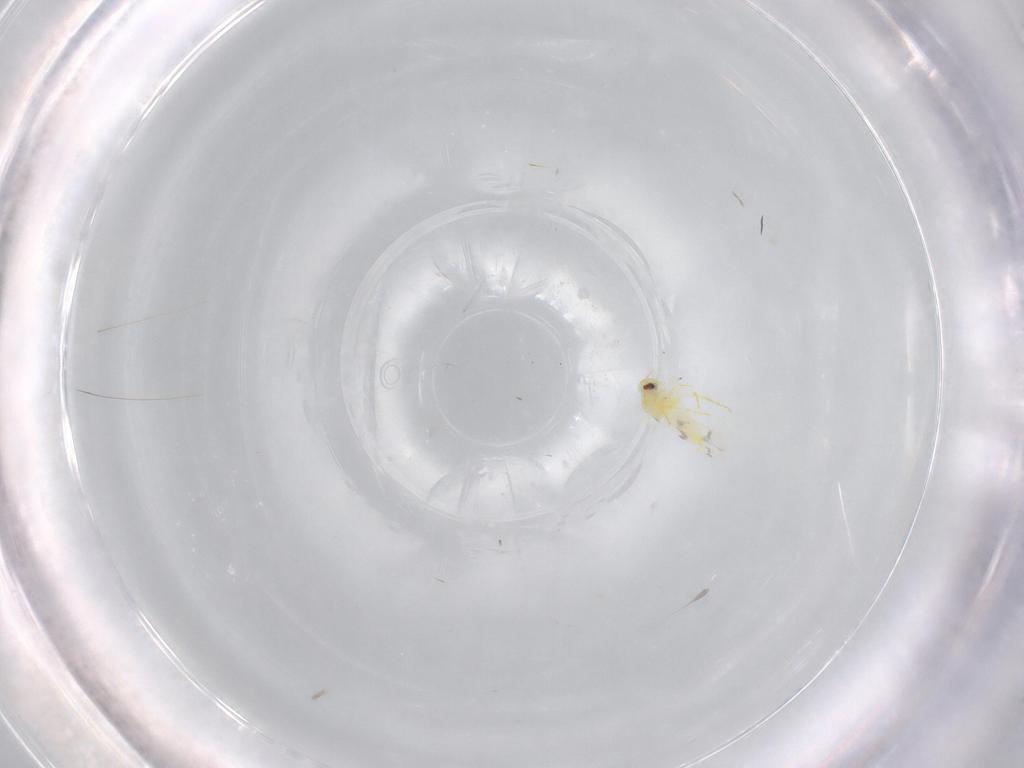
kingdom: Animalia
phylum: Arthropoda
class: Insecta
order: Hemiptera
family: Aleyrodidae
